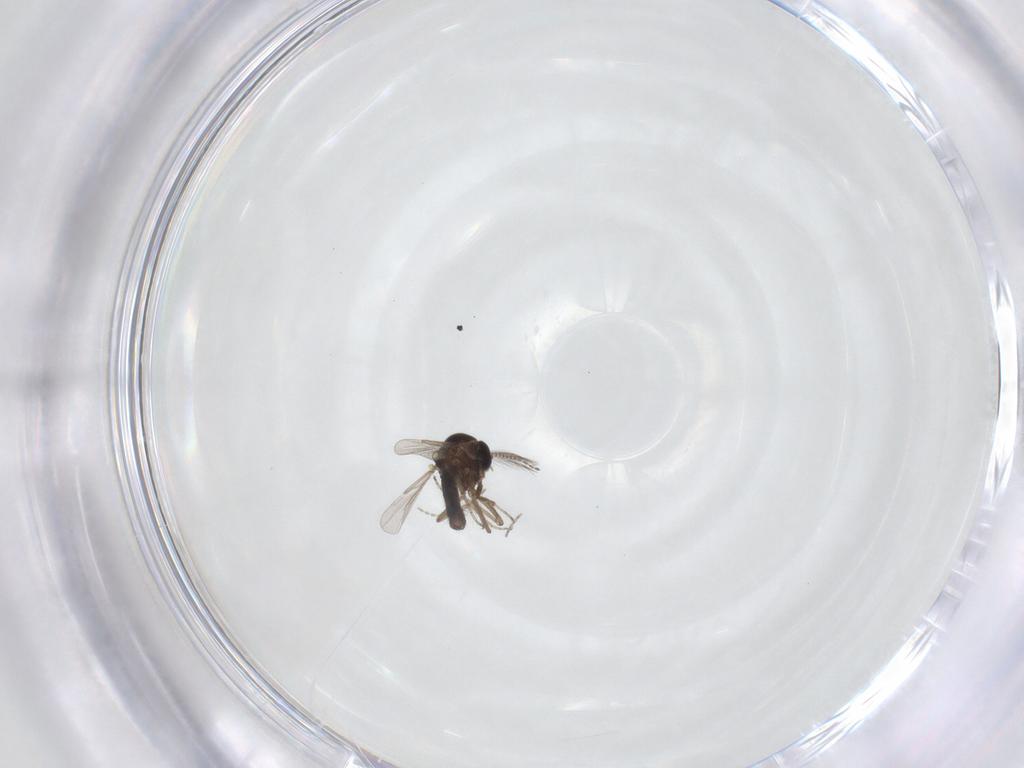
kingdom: Animalia
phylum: Arthropoda
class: Insecta
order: Diptera
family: Ceratopogonidae
